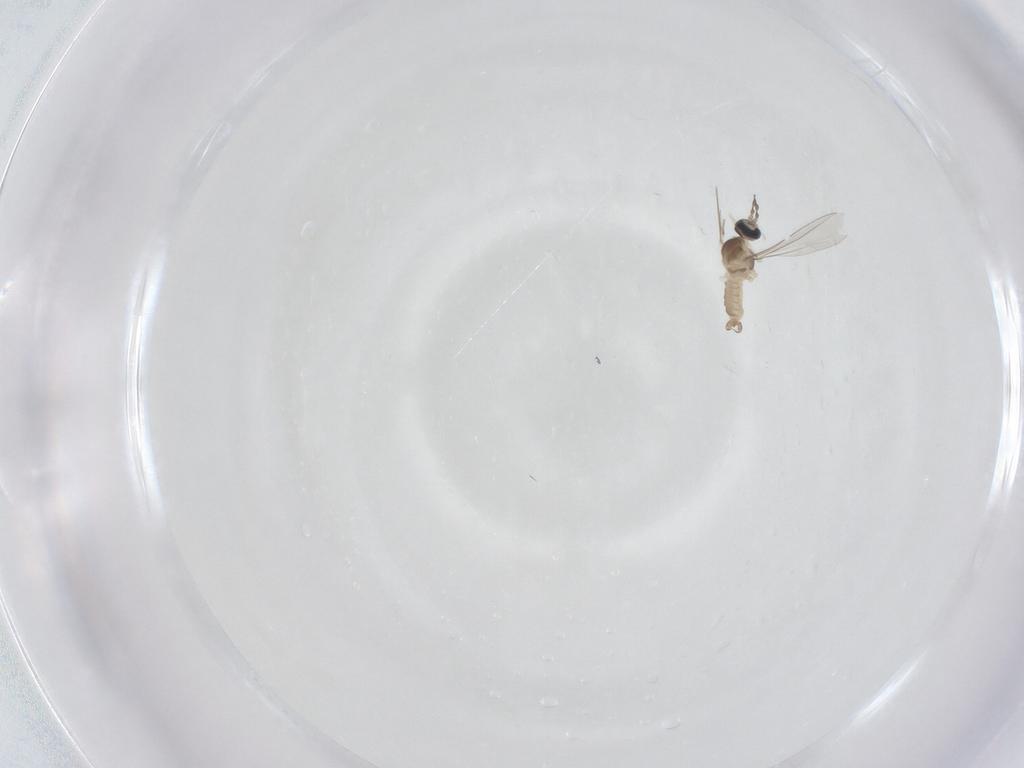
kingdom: Animalia
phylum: Arthropoda
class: Insecta
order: Diptera
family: Cecidomyiidae
